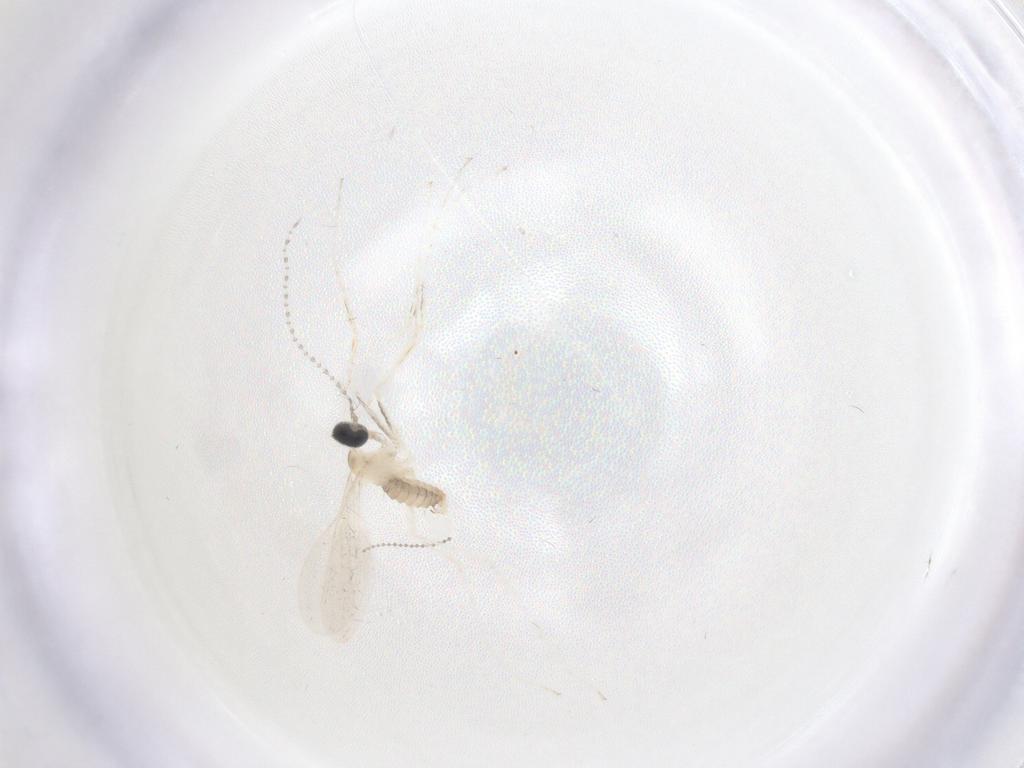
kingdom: Animalia
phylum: Arthropoda
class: Insecta
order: Diptera
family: Cecidomyiidae
